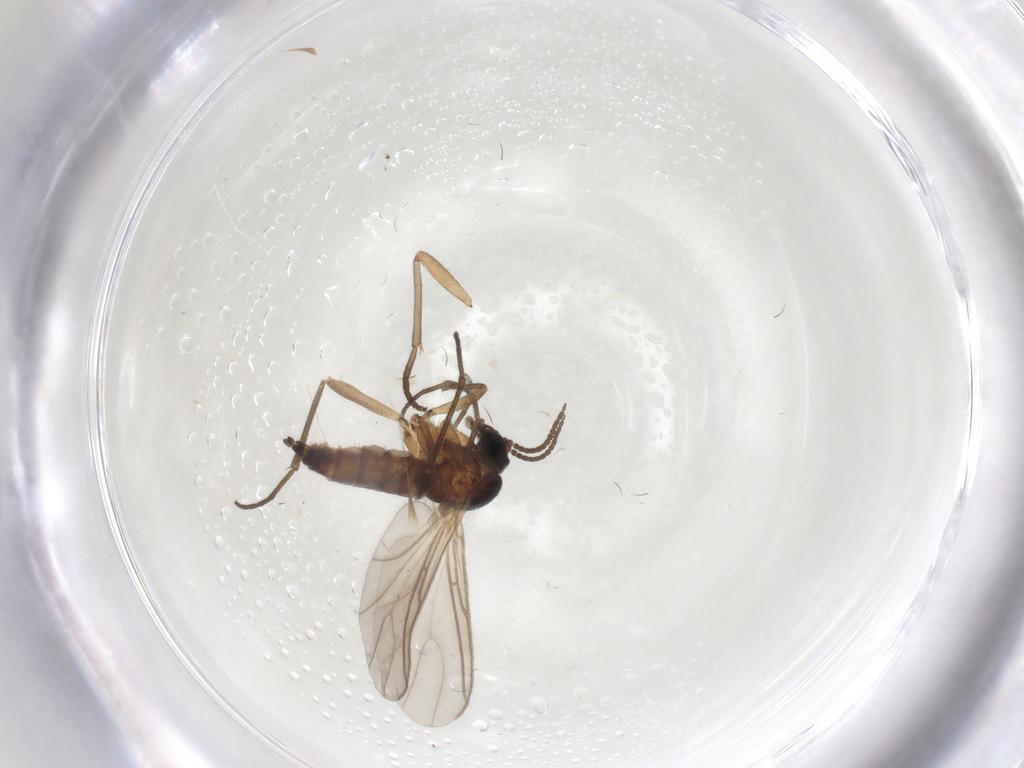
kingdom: Animalia
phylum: Arthropoda
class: Insecta
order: Diptera
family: Sciaridae
